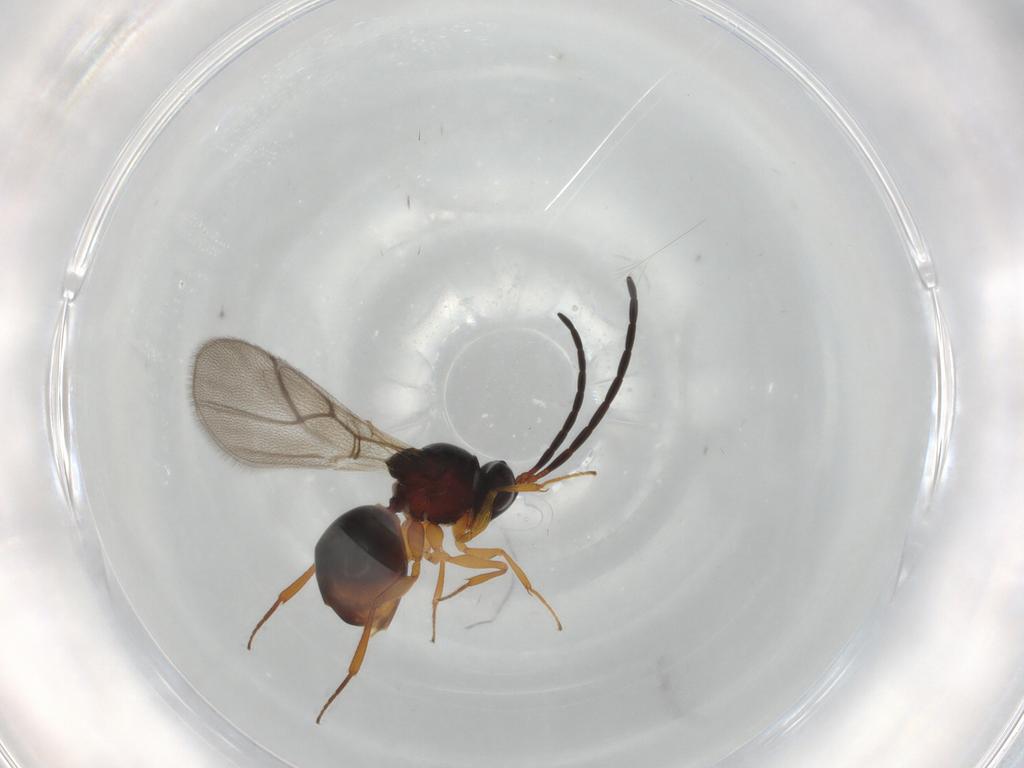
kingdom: Animalia
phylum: Arthropoda
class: Insecta
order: Hymenoptera
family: Figitidae
